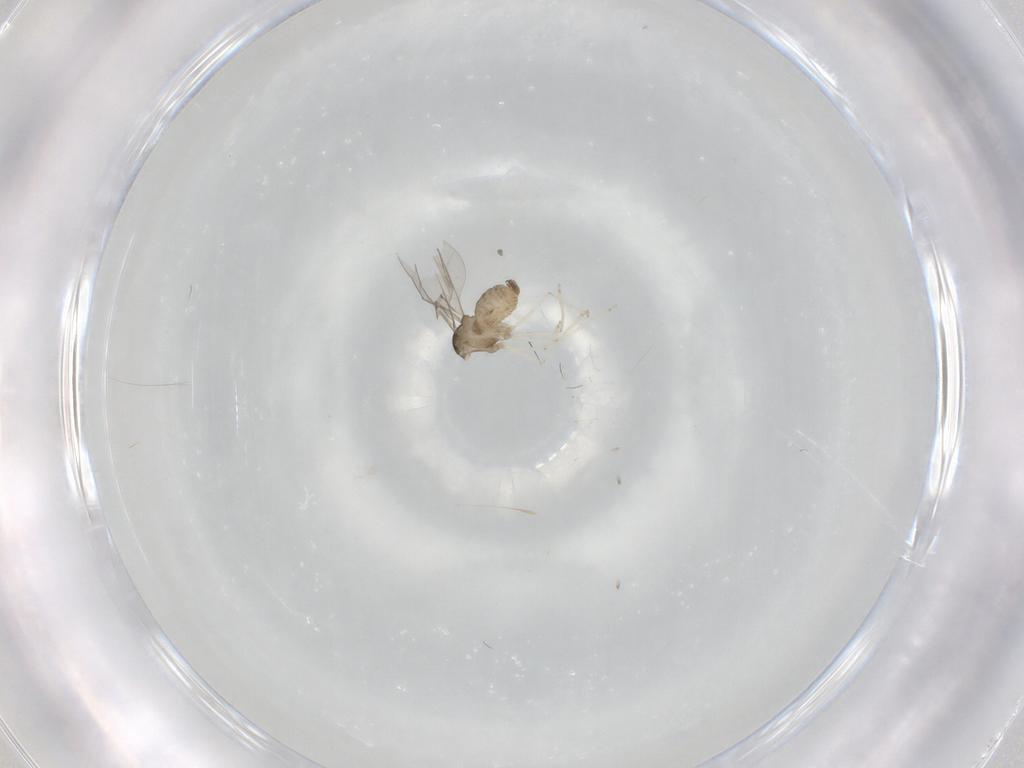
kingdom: Animalia
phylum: Arthropoda
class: Insecta
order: Diptera
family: Cecidomyiidae
